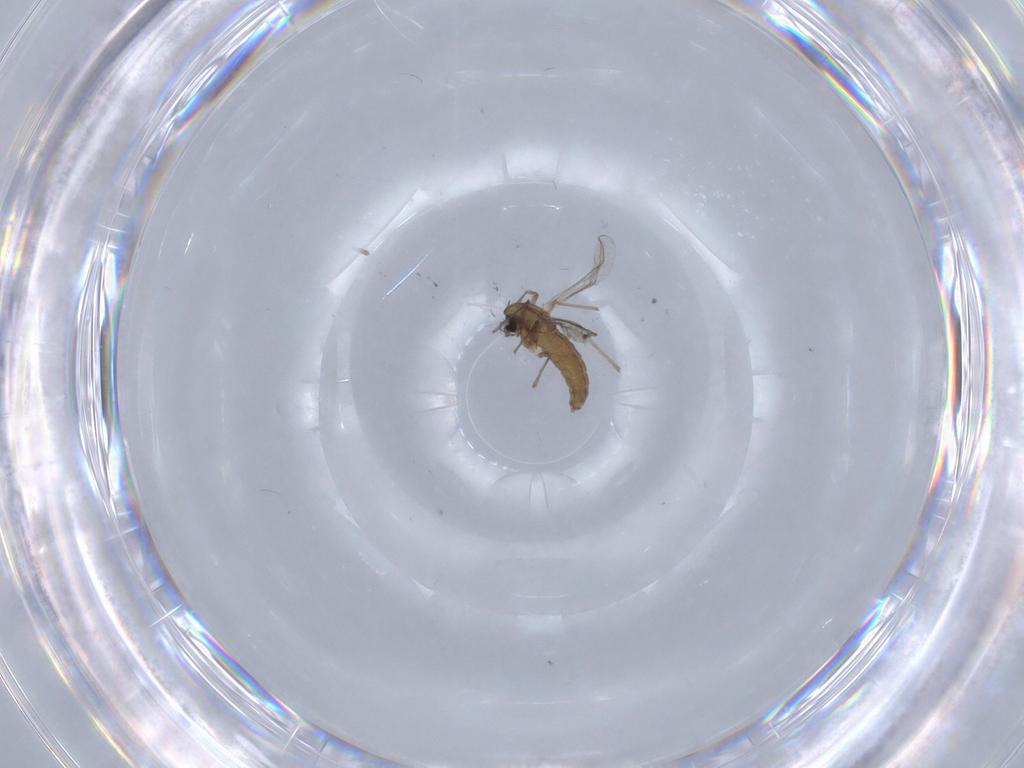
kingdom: Animalia
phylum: Arthropoda
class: Insecta
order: Diptera
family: Chironomidae
